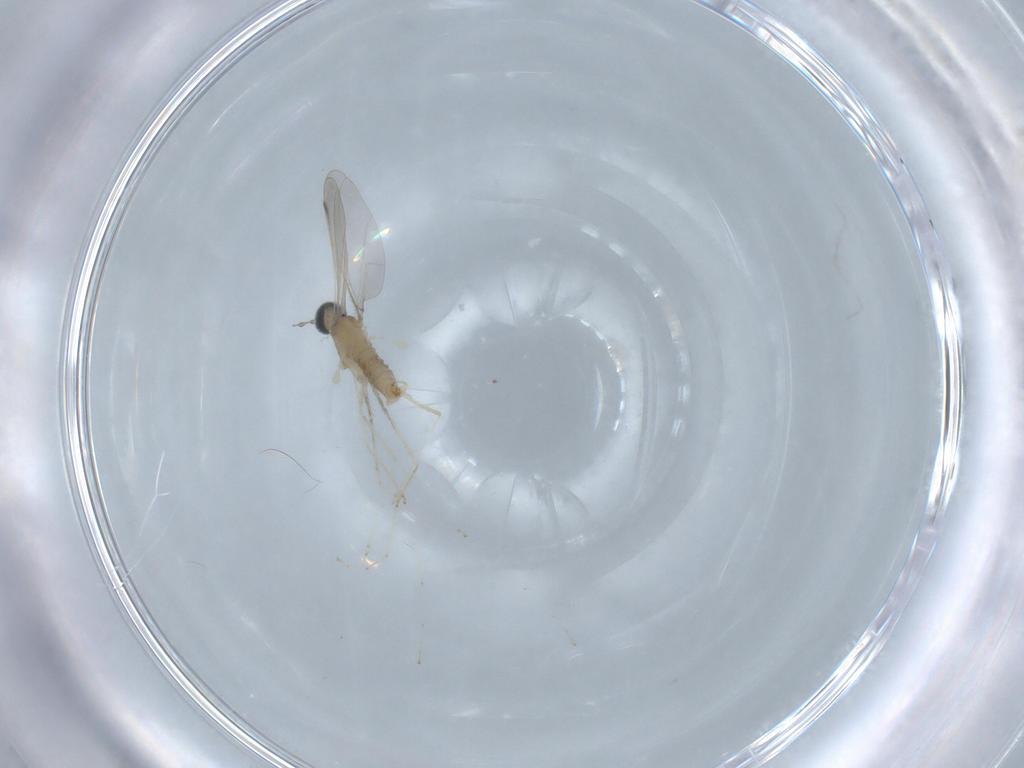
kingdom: Animalia
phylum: Arthropoda
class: Insecta
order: Diptera
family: Cecidomyiidae
